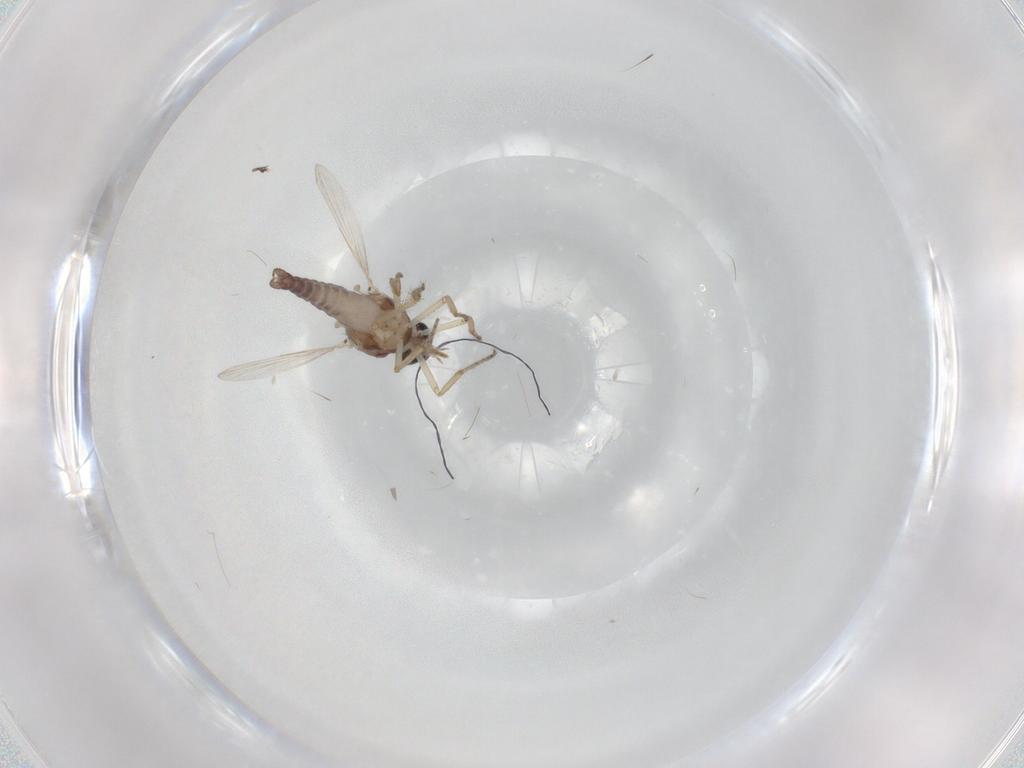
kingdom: Animalia
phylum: Arthropoda
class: Insecta
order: Diptera
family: Ceratopogonidae
